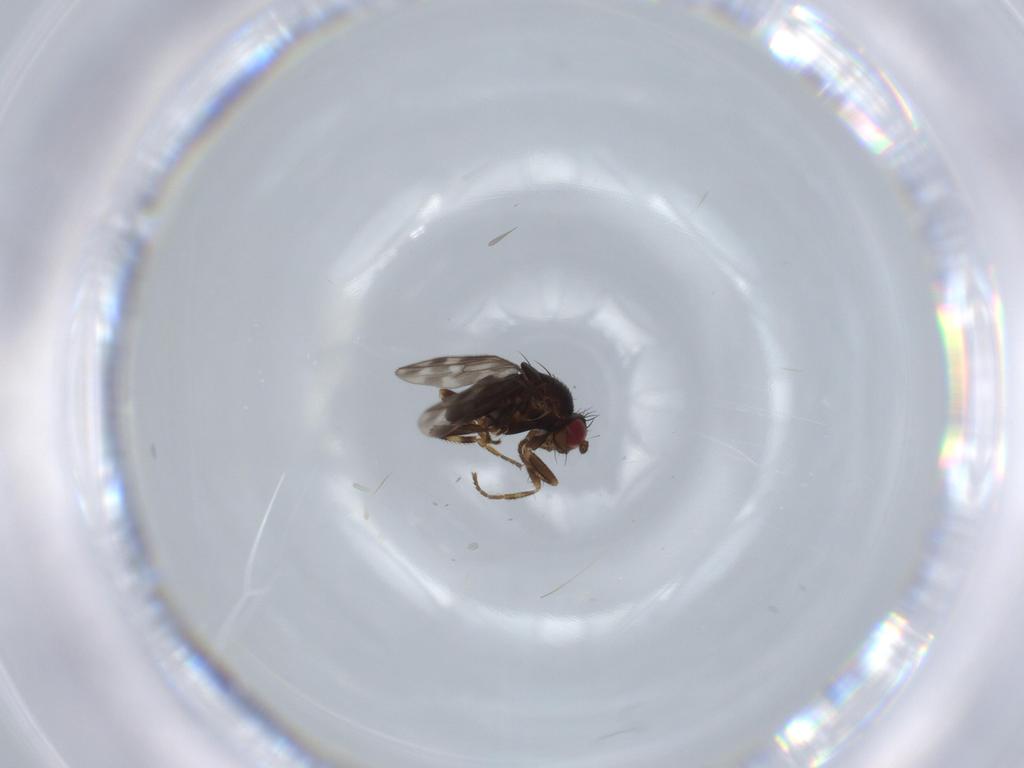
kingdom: Animalia
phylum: Arthropoda
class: Insecta
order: Diptera
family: Sphaeroceridae
